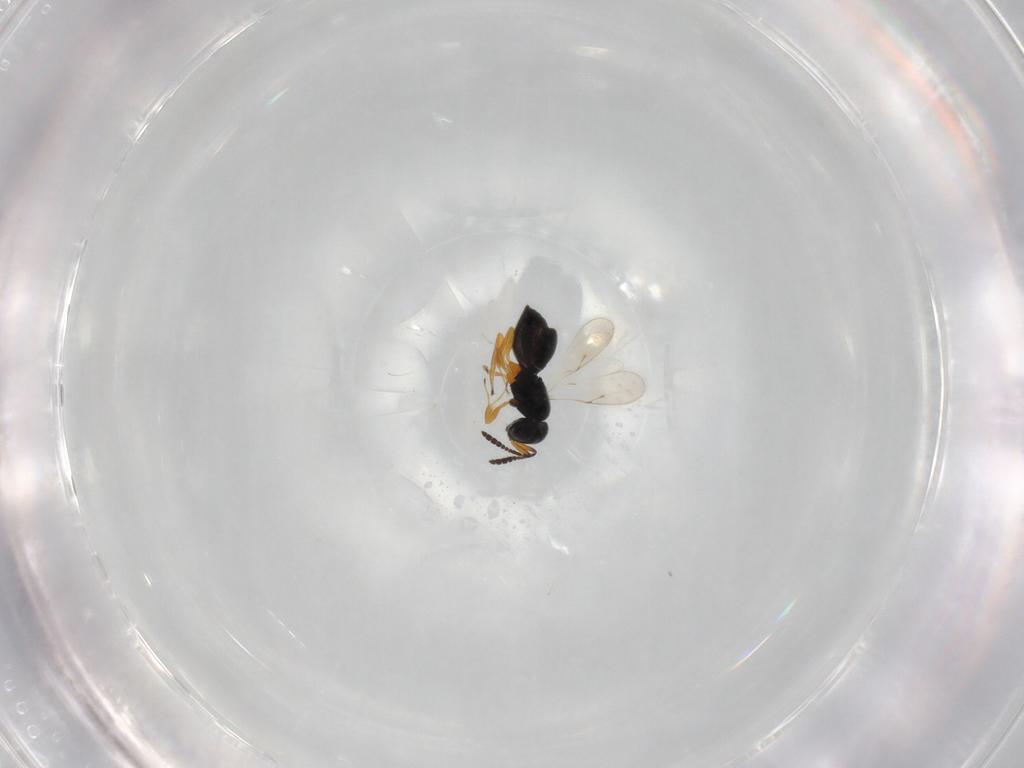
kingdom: Animalia
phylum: Arthropoda
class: Insecta
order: Hymenoptera
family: Scelionidae
